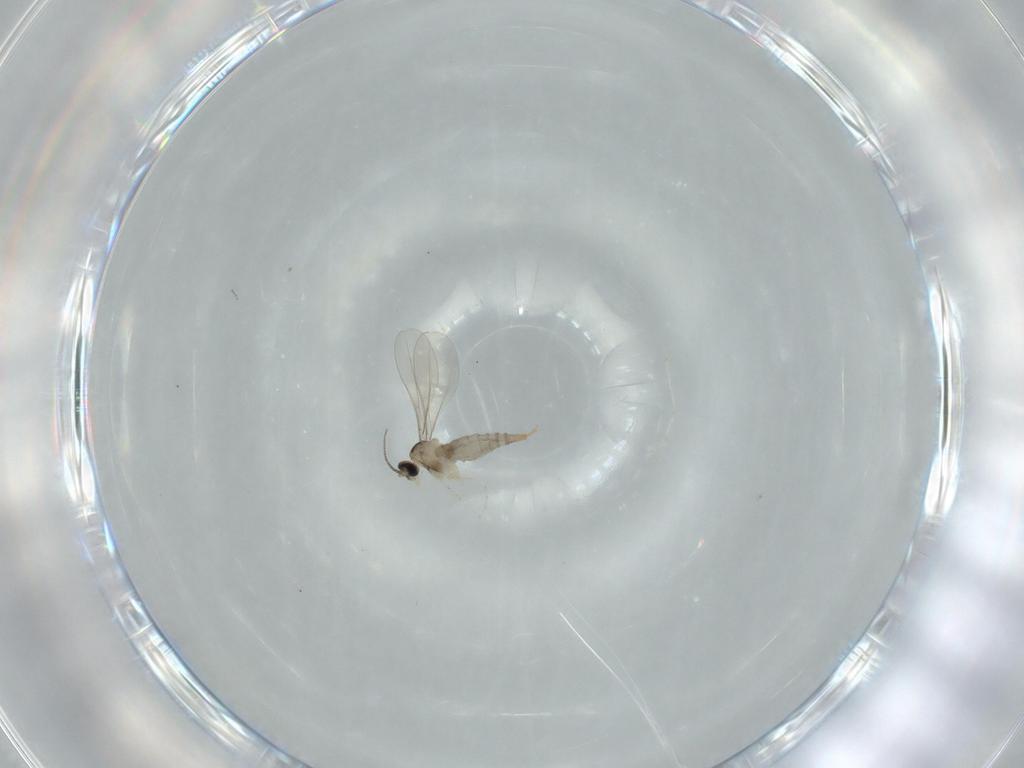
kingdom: Animalia
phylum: Arthropoda
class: Insecta
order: Diptera
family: Cecidomyiidae
